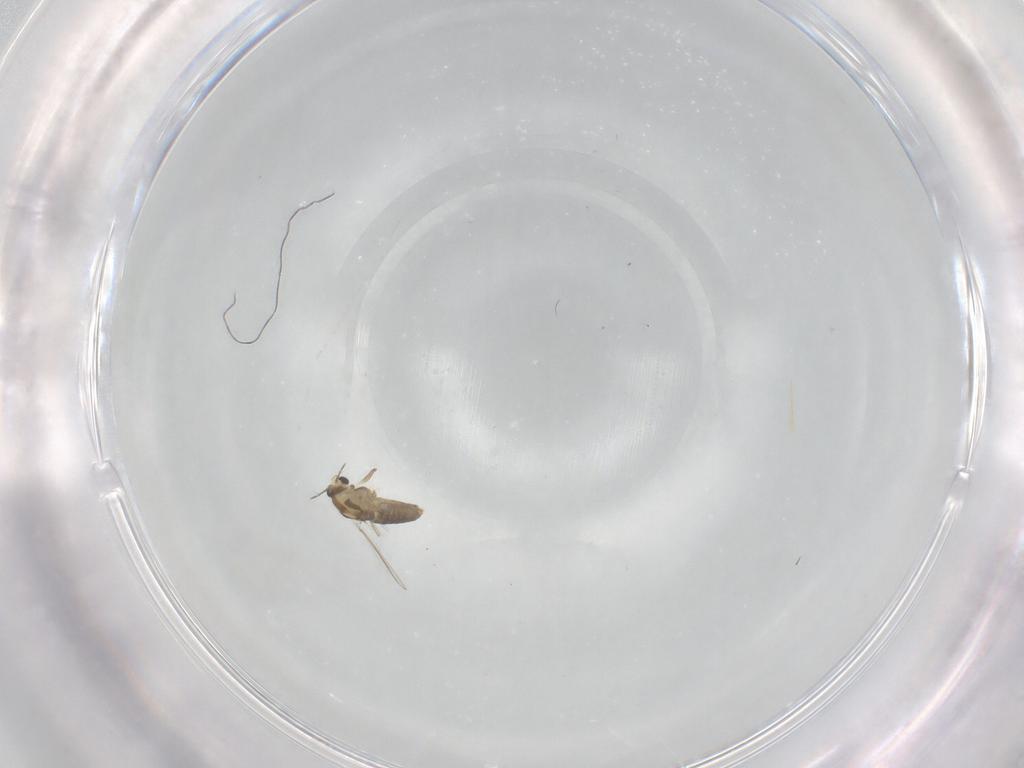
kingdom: Animalia
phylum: Arthropoda
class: Insecta
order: Diptera
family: Chironomidae
